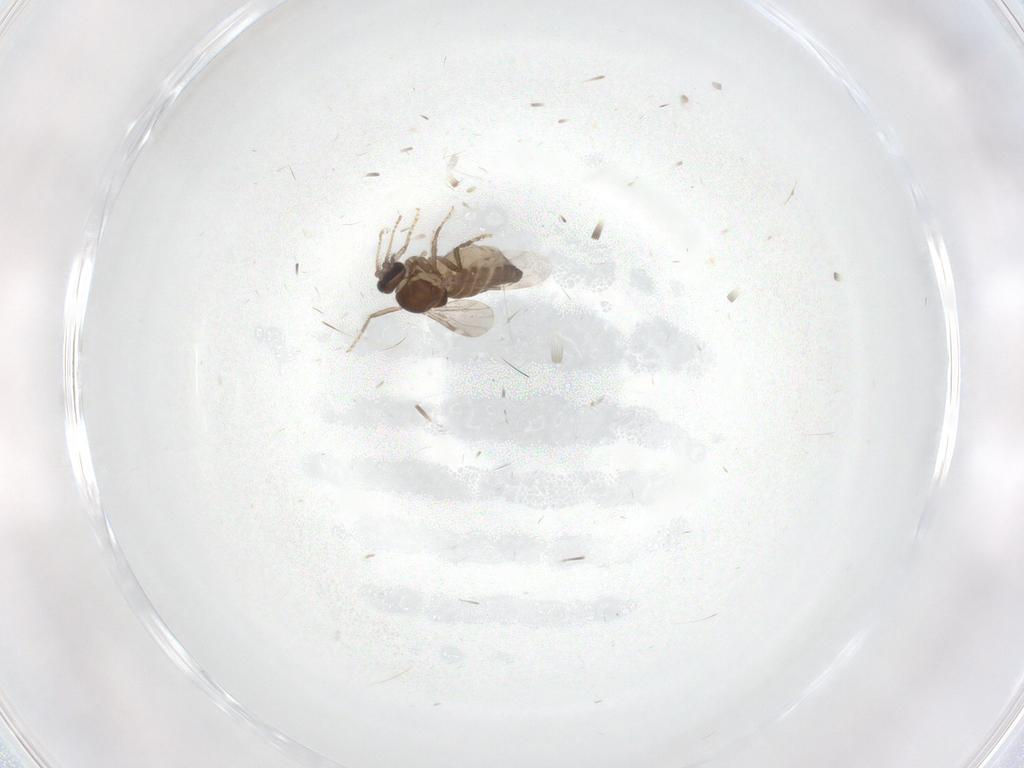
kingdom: Animalia
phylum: Arthropoda
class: Insecta
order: Diptera
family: Ceratopogonidae
